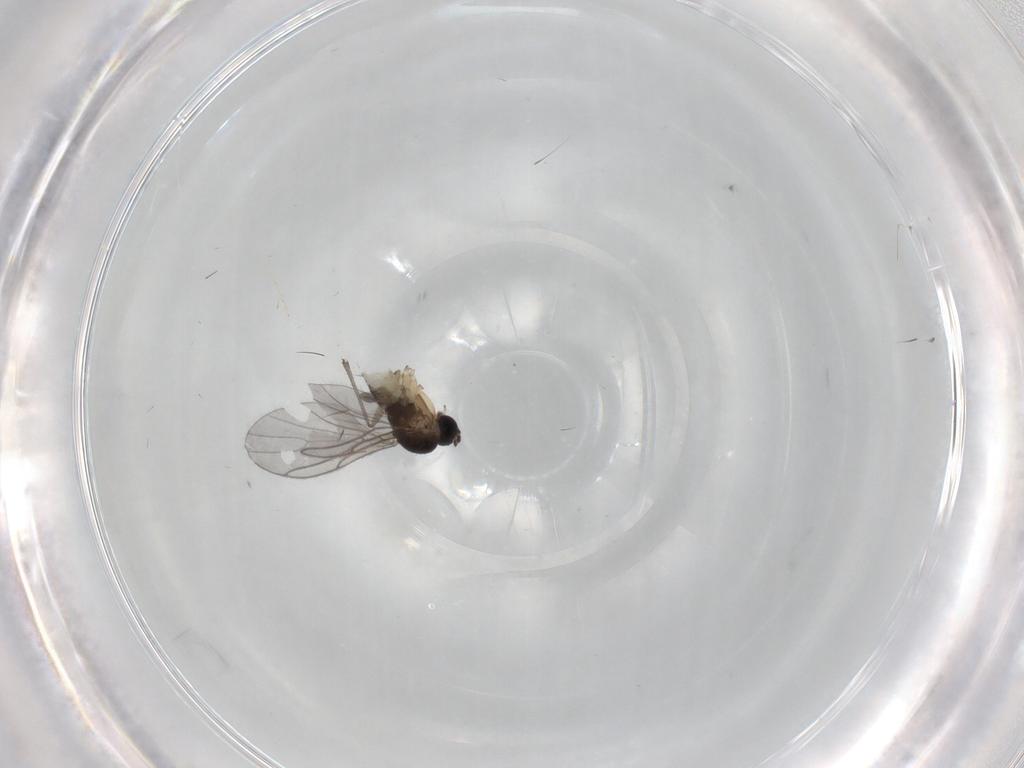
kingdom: Animalia
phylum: Arthropoda
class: Insecta
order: Diptera
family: Sciaridae
